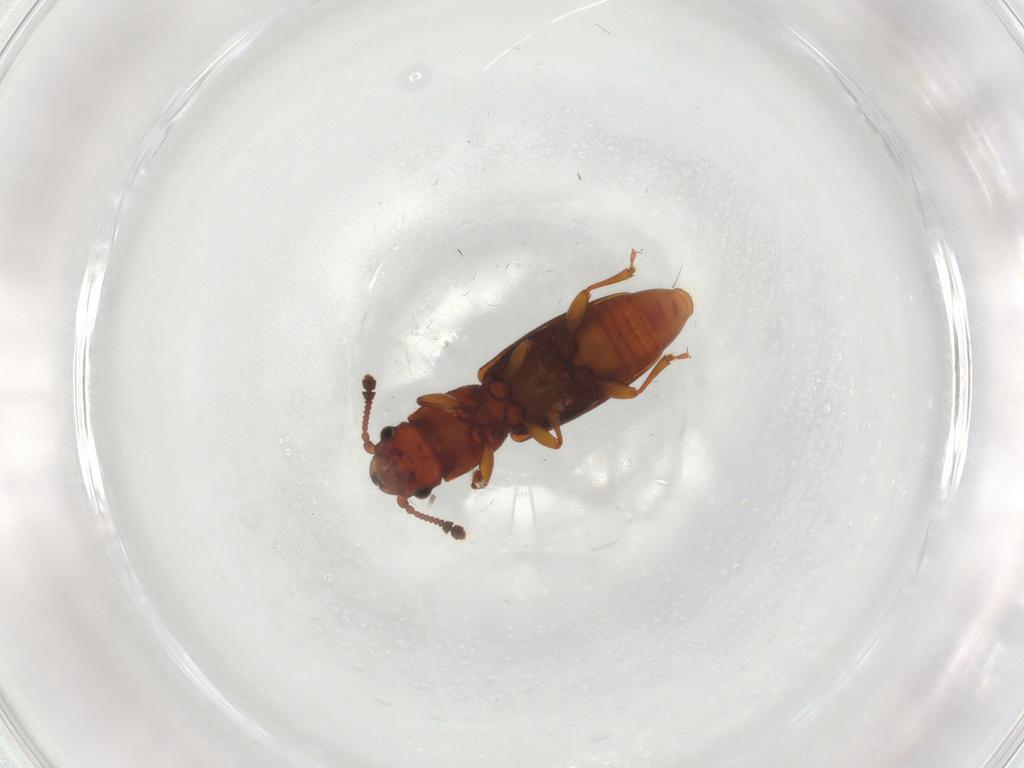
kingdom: Animalia
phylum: Arthropoda
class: Insecta
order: Coleoptera
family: Monotomidae
